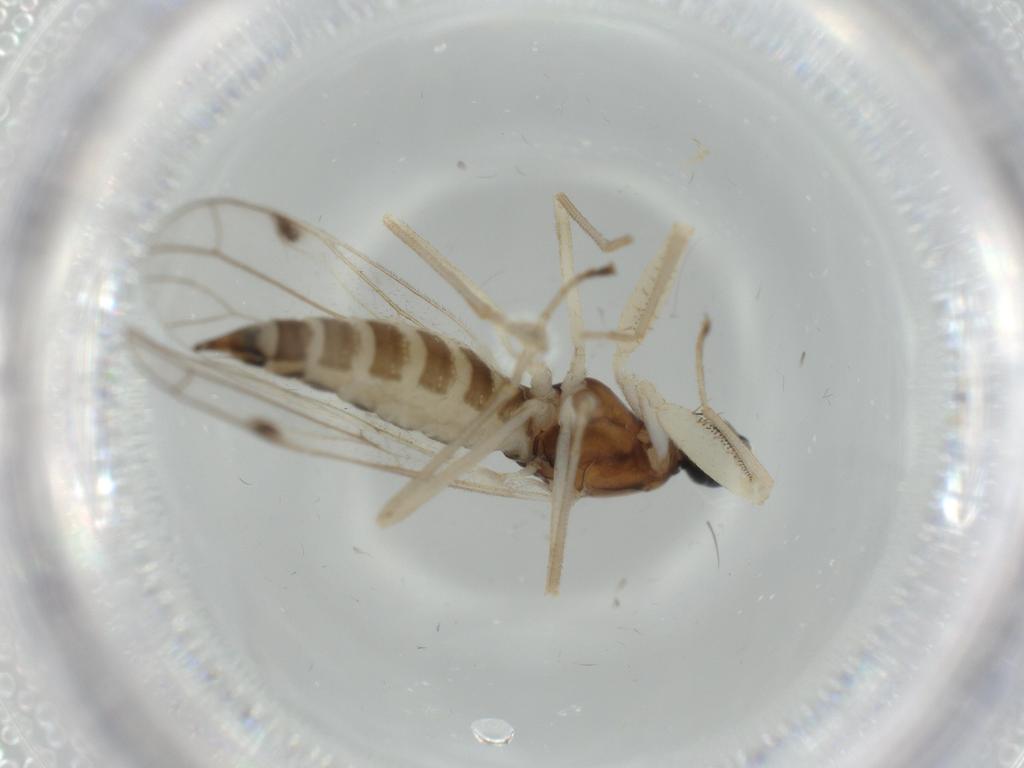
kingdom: Animalia
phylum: Arthropoda
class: Insecta
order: Diptera
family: Empididae
